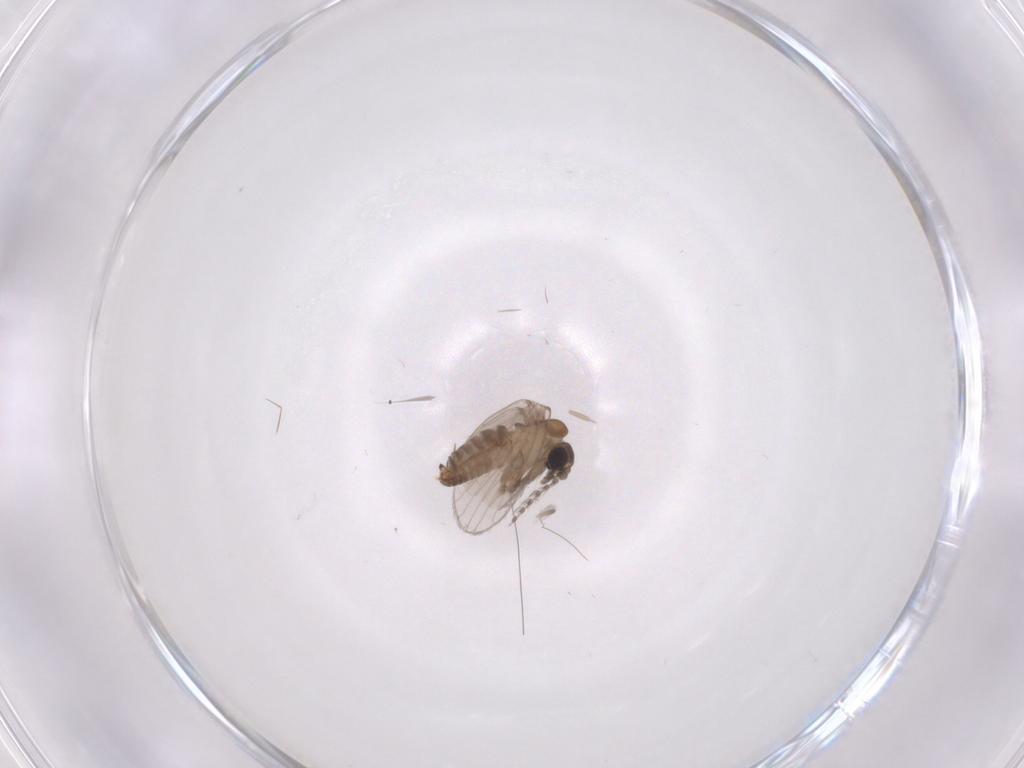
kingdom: Animalia
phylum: Arthropoda
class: Insecta
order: Diptera
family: Psychodidae
